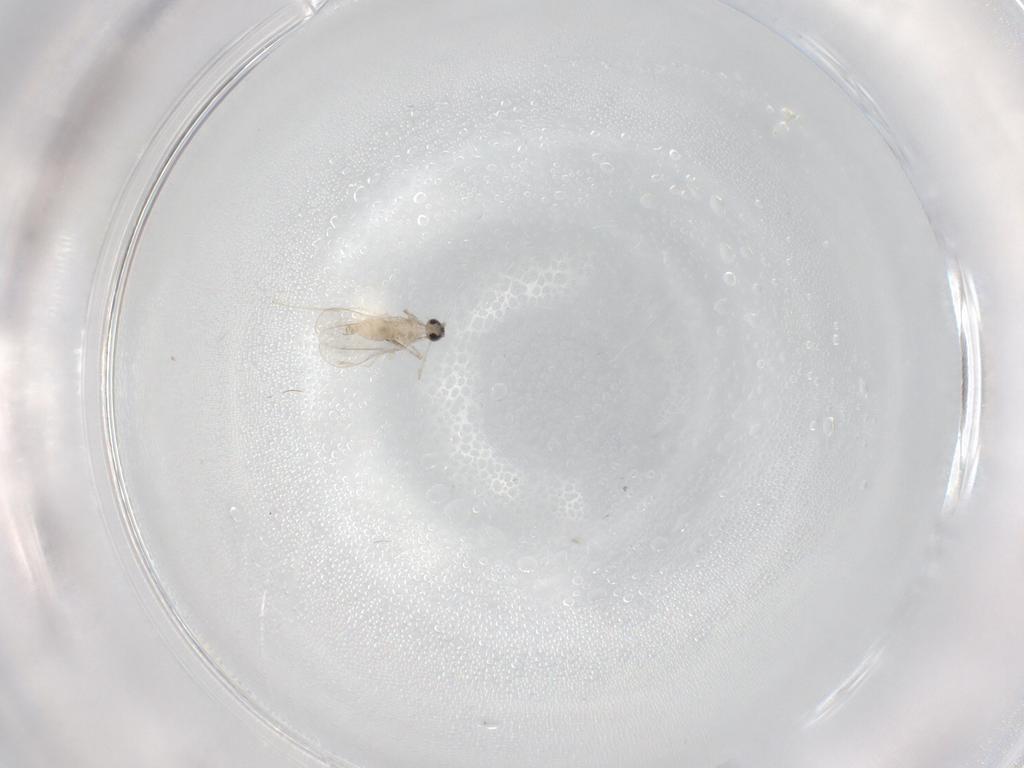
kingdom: Animalia
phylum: Arthropoda
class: Insecta
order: Diptera
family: Cecidomyiidae
